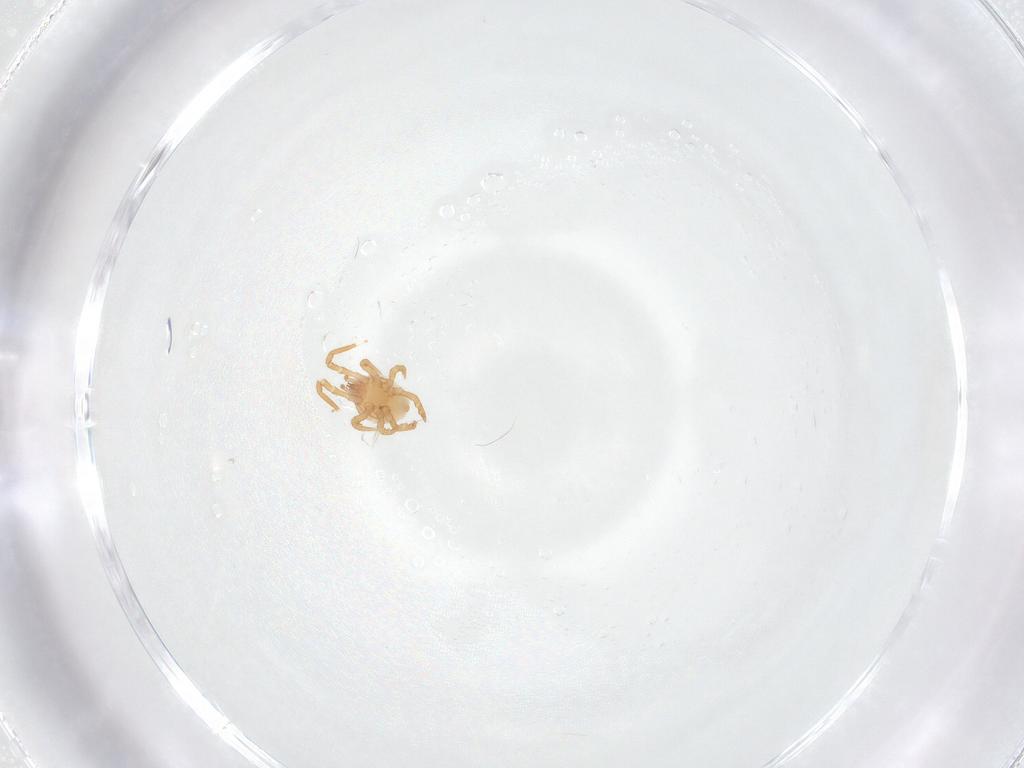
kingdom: Animalia
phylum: Arthropoda
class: Arachnida
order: Mesostigmata
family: Parasitidae
